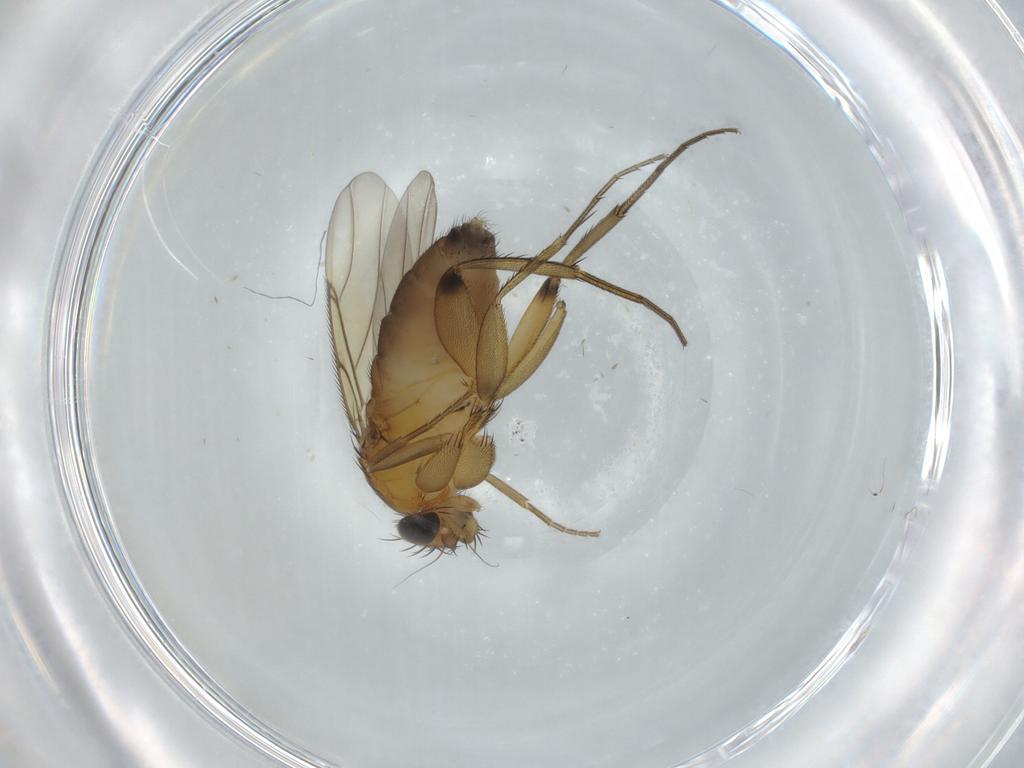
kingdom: Animalia
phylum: Arthropoda
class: Insecta
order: Diptera
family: Phoridae
